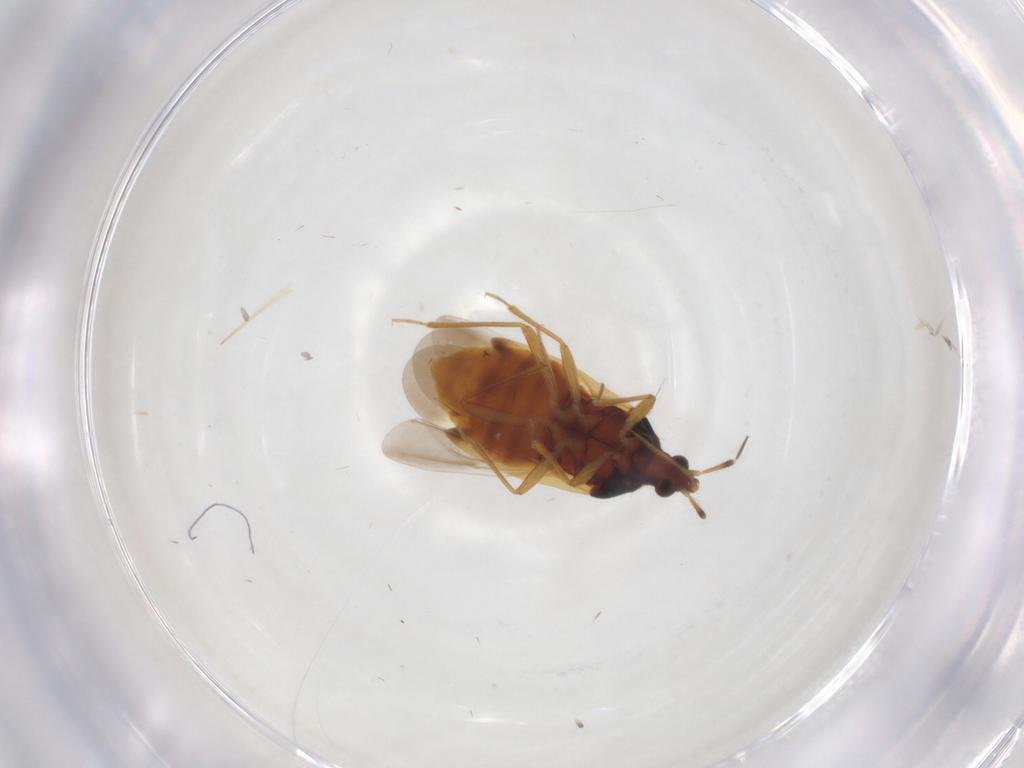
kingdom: Animalia
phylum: Arthropoda
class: Insecta
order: Hemiptera
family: Lasiochilidae
